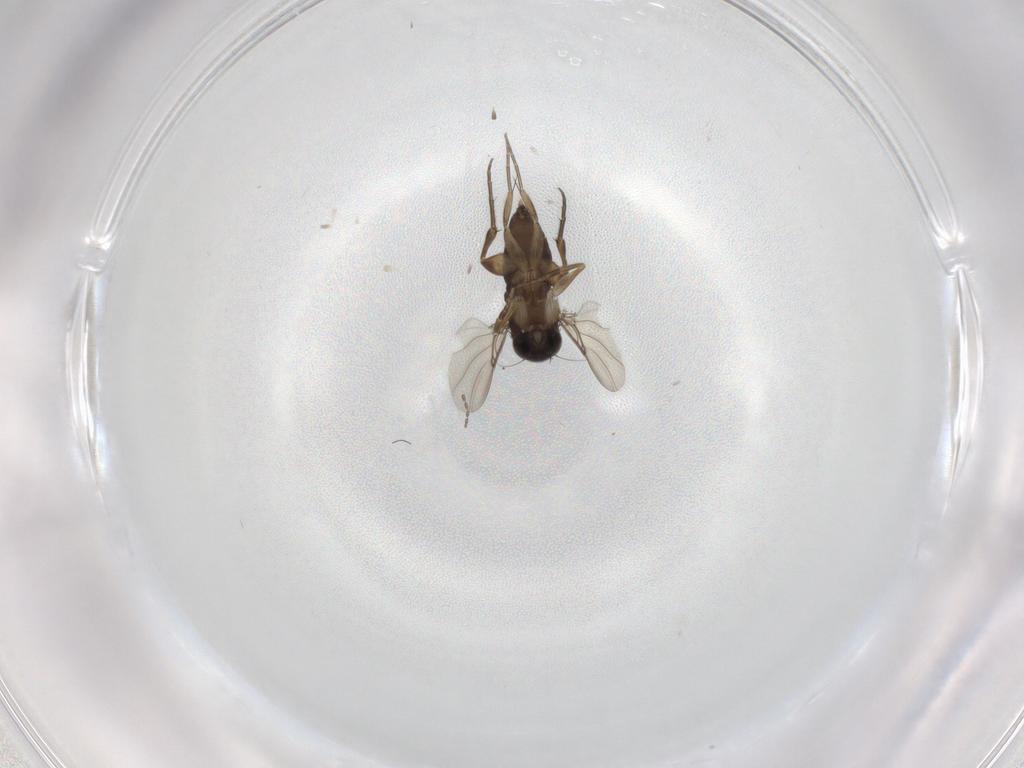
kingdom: Animalia
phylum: Arthropoda
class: Insecta
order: Diptera
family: Phoridae
